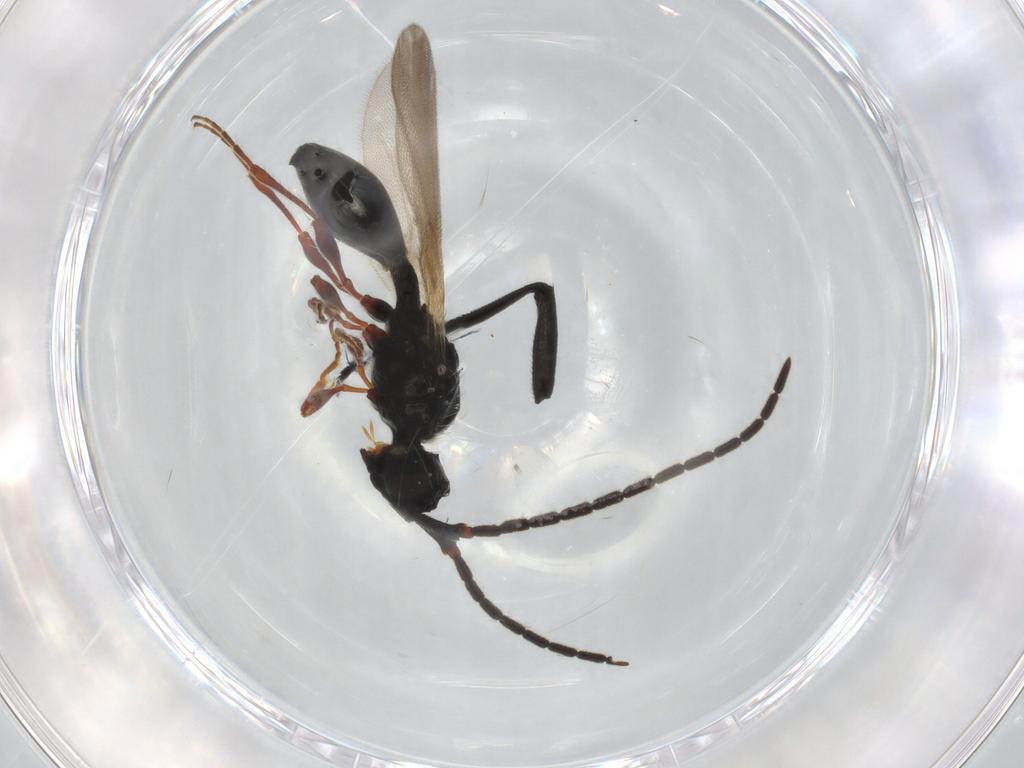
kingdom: Animalia
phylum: Arthropoda
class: Insecta
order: Hymenoptera
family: Diapriidae
